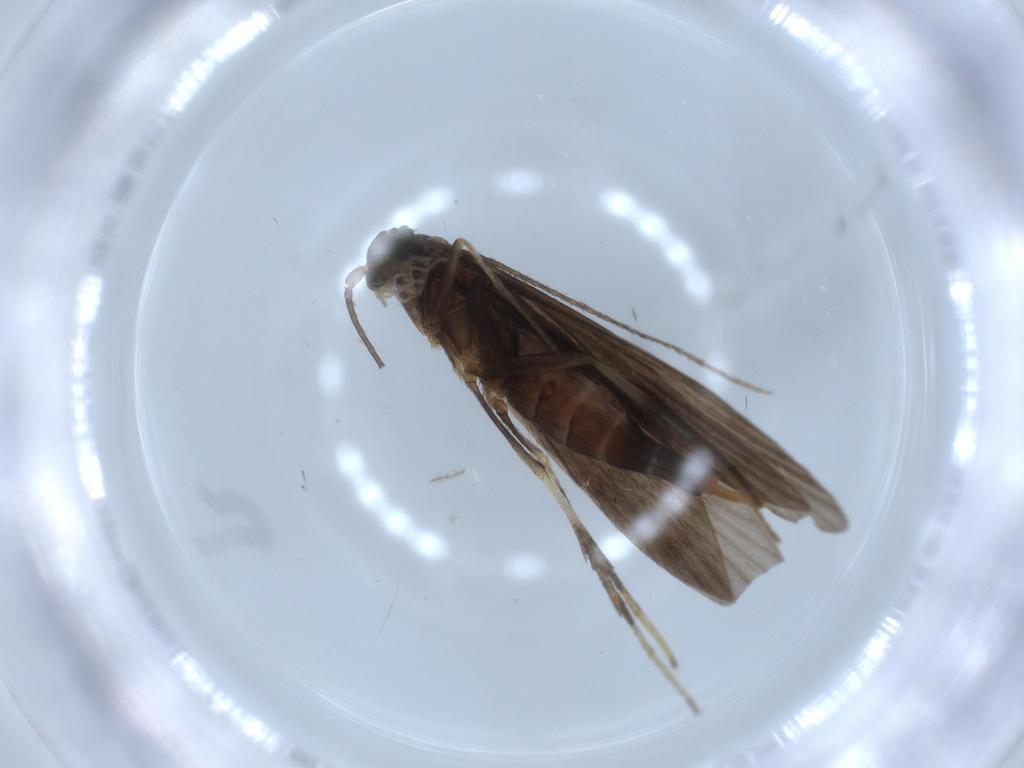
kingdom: Animalia
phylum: Arthropoda
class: Insecta
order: Trichoptera
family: Xiphocentronidae
